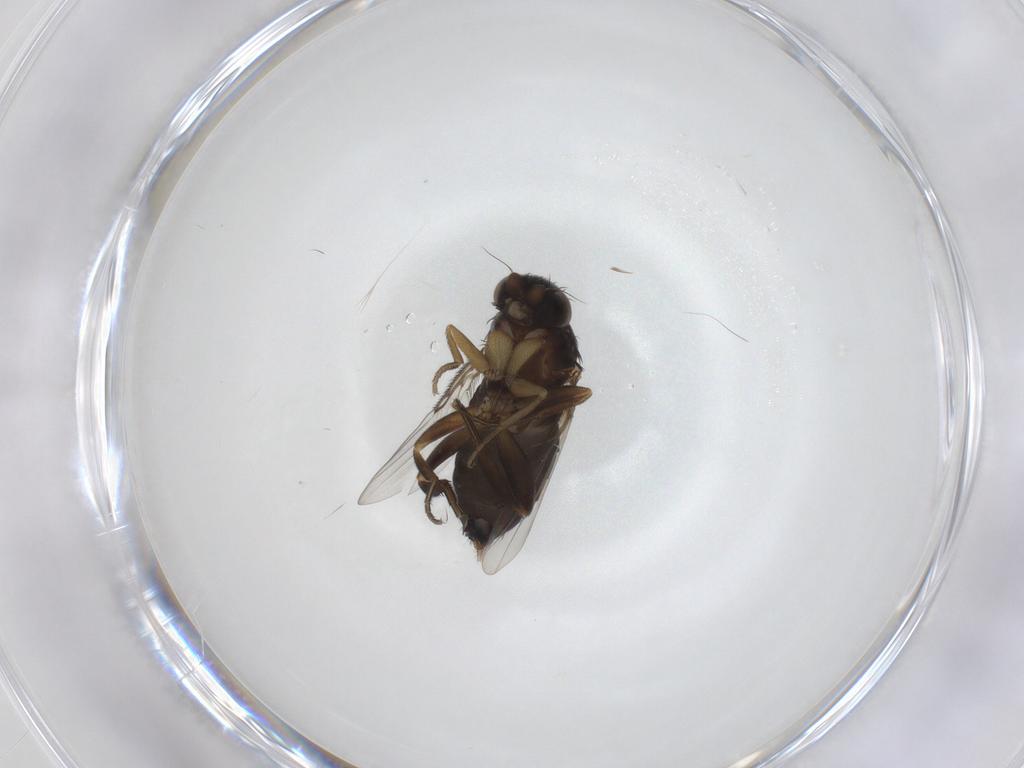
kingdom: Animalia
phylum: Arthropoda
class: Insecta
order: Diptera
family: Phoridae
